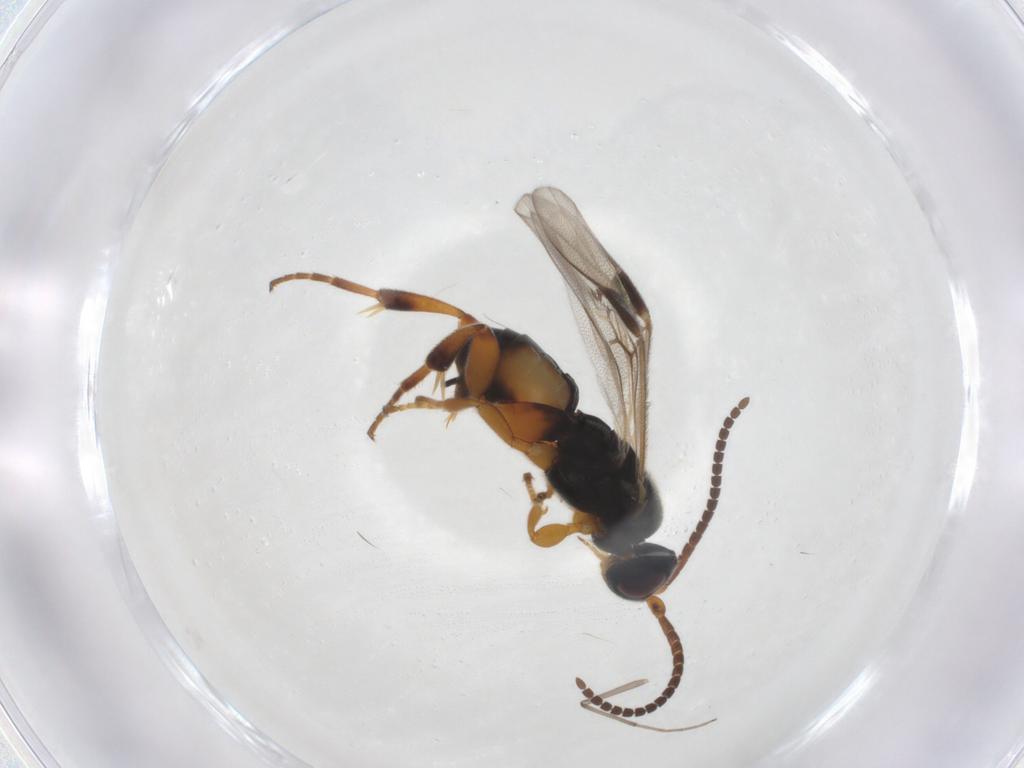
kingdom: Animalia
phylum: Arthropoda
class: Insecta
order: Hymenoptera
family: Braconidae
